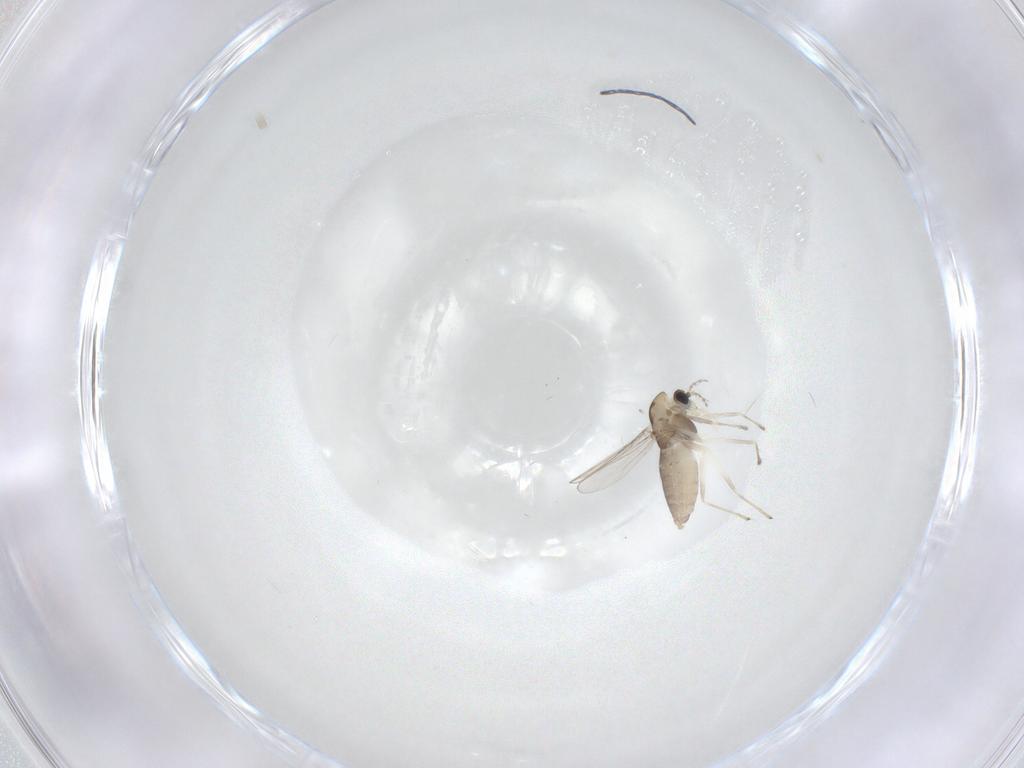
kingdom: Animalia
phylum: Arthropoda
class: Insecta
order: Diptera
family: Chironomidae
